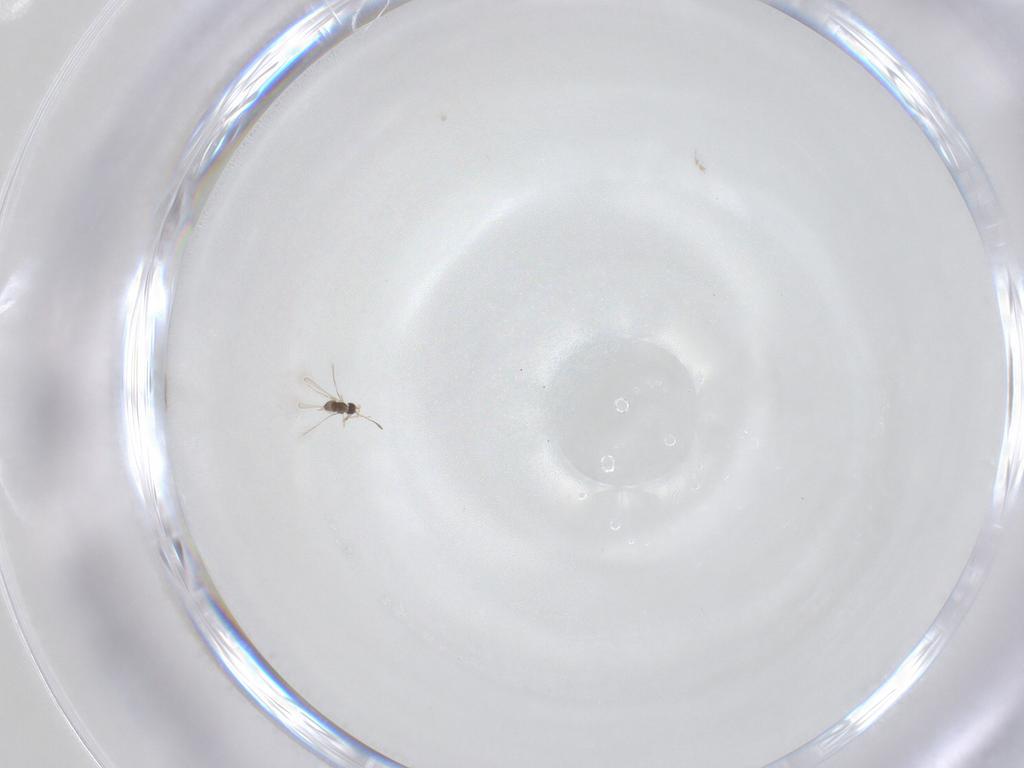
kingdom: Animalia
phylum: Arthropoda
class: Insecta
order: Hymenoptera
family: Mymaridae
